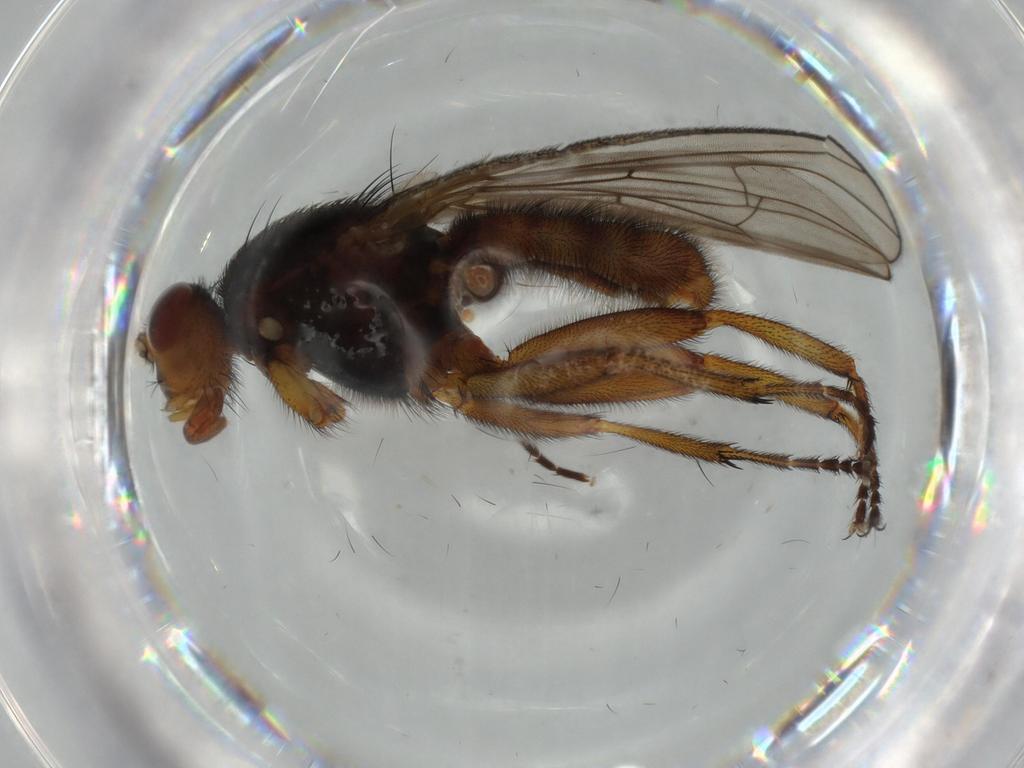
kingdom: Animalia
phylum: Arthropoda
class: Insecta
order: Diptera
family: Heleomyzidae
